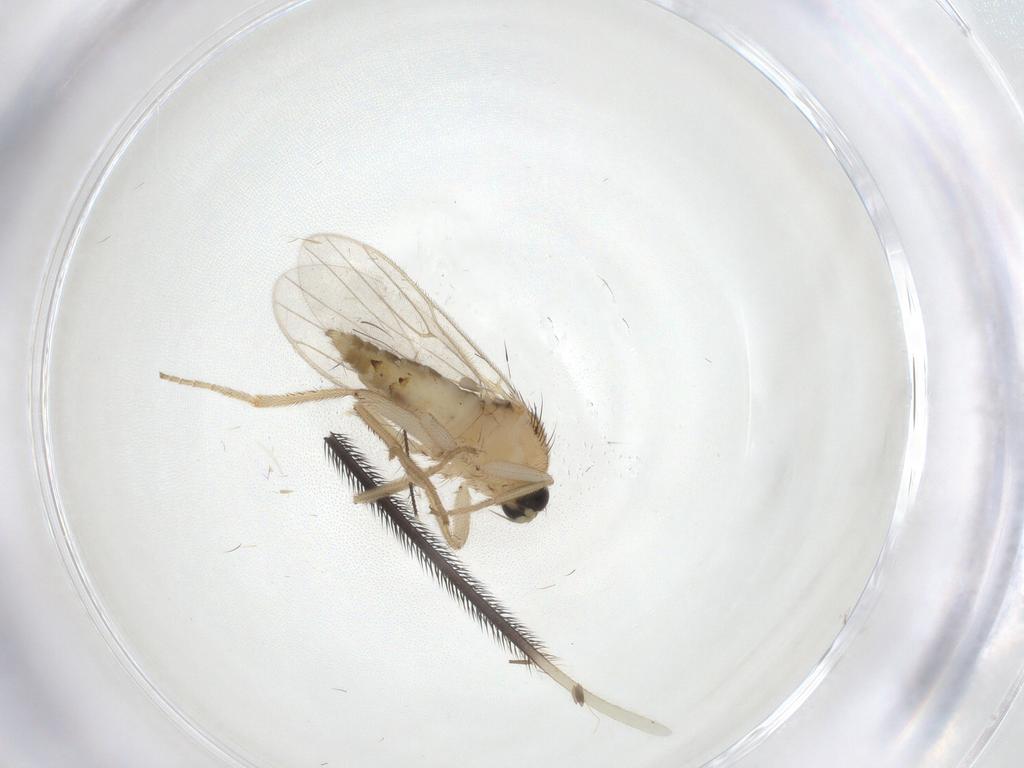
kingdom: Animalia
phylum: Arthropoda
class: Insecta
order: Diptera
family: Hybotidae
